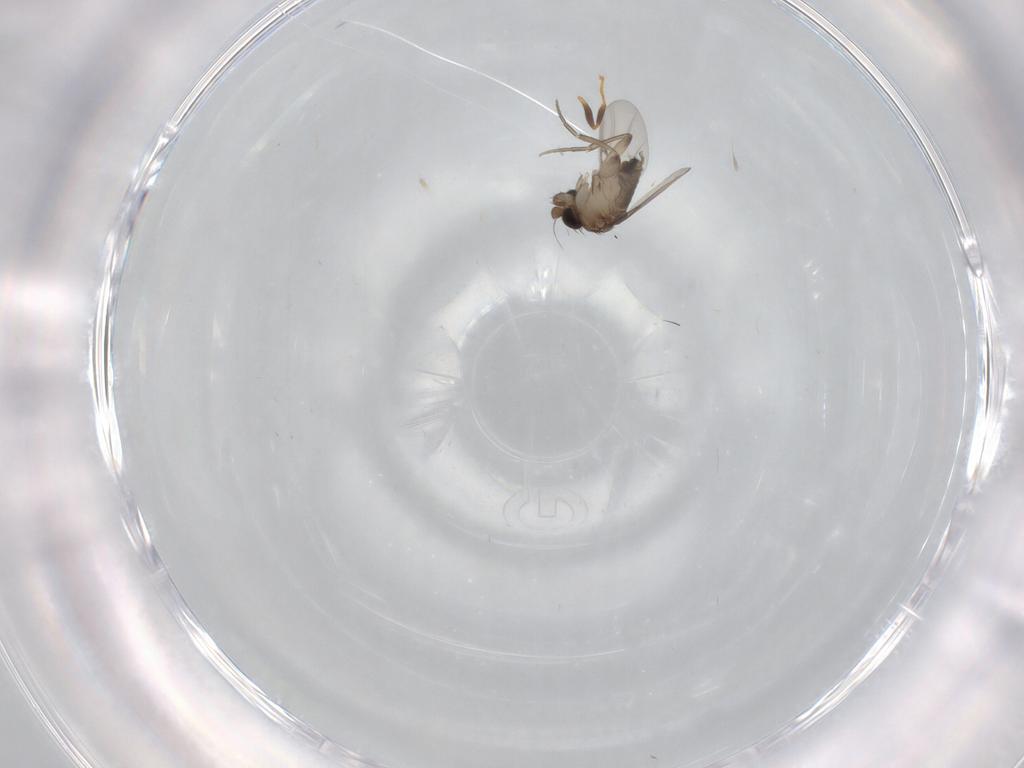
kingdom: Animalia
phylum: Arthropoda
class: Insecta
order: Diptera
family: Phoridae
